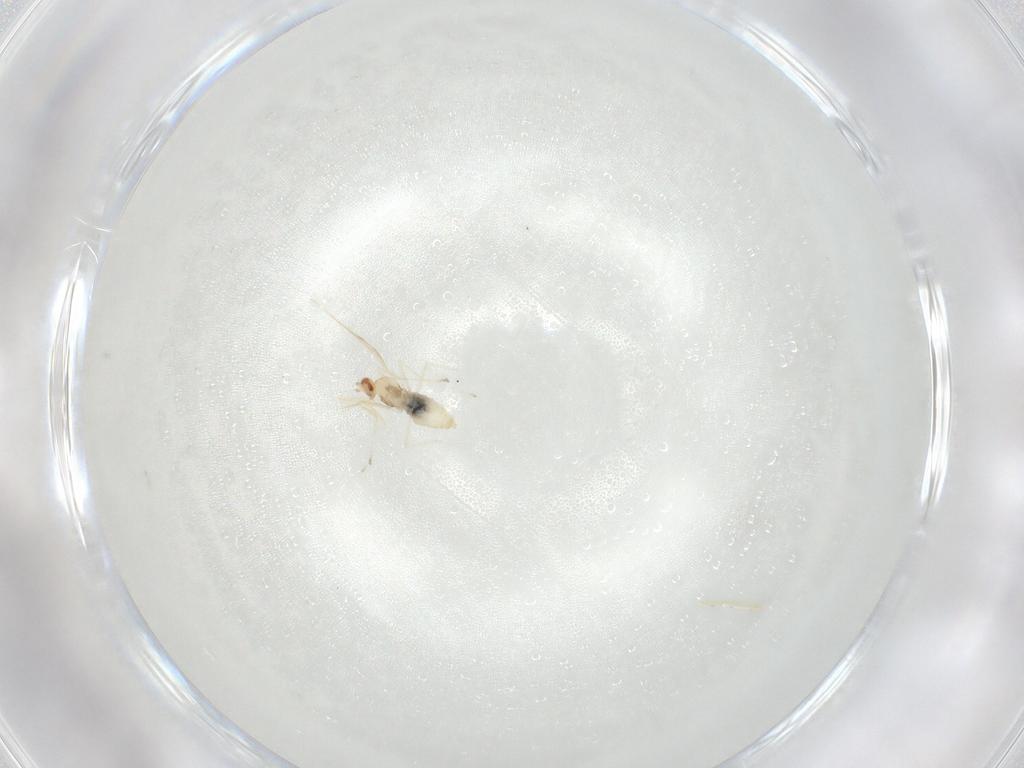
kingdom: Animalia
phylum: Arthropoda
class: Insecta
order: Diptera
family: Cecidomyiidae
